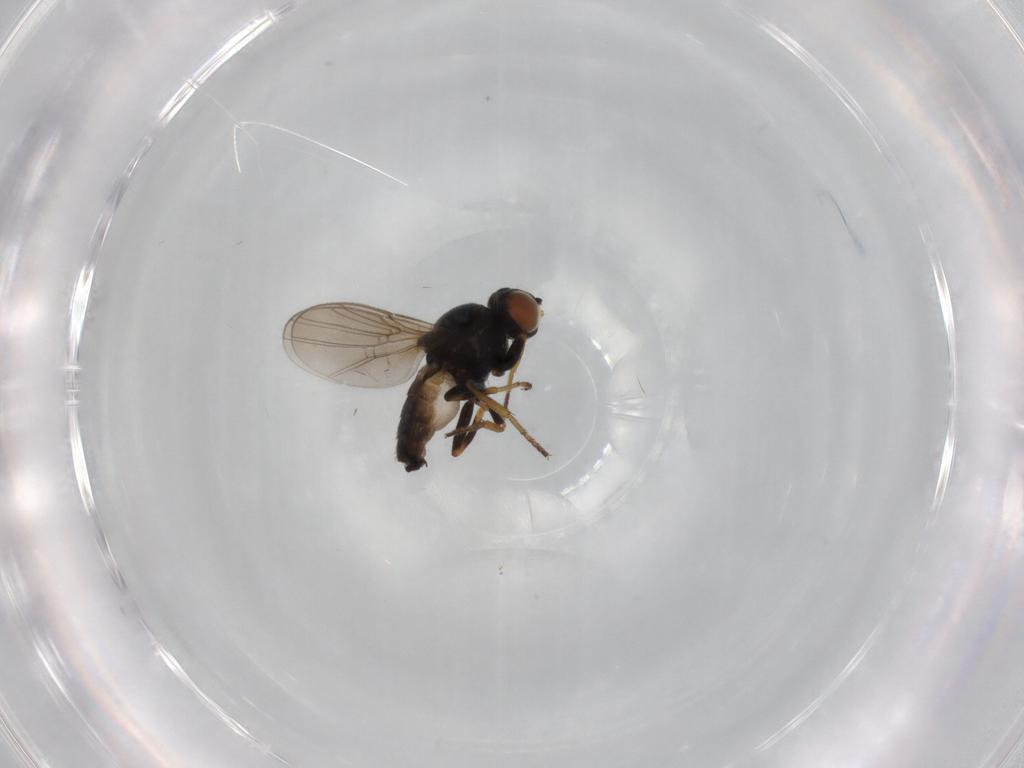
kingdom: Animalia
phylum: Arthropoda
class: Insecta
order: Diptera
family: Chloropidae
